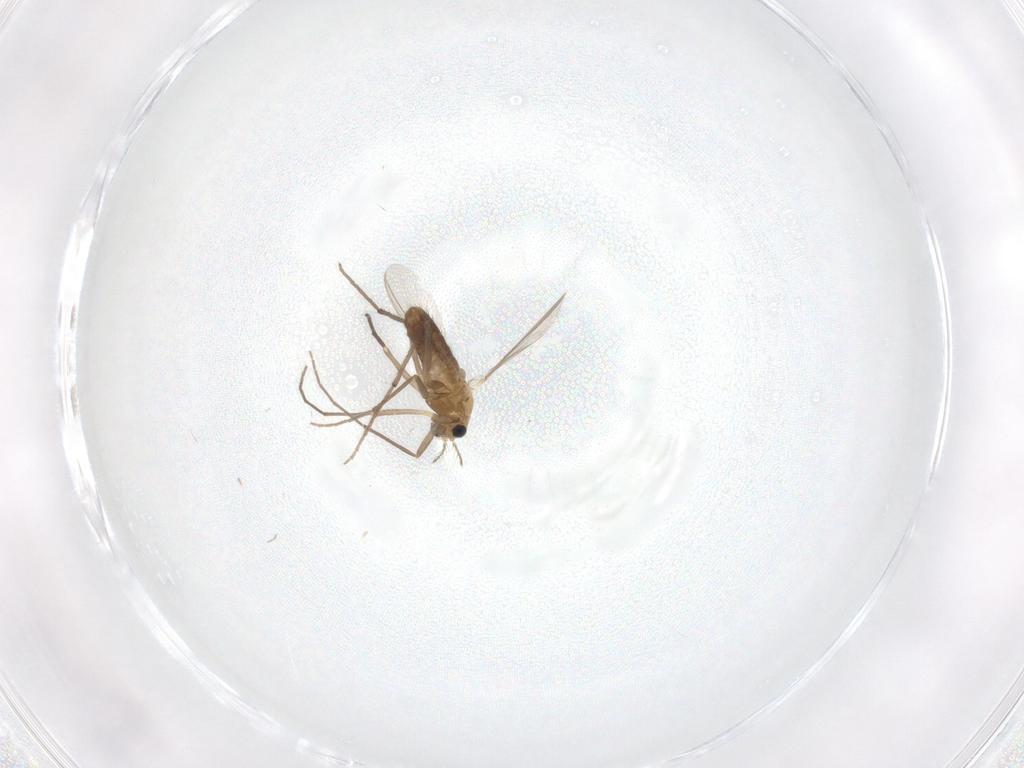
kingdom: Animalia
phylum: Arthropoda
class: Insecta
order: Diptera
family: Chironomidae
